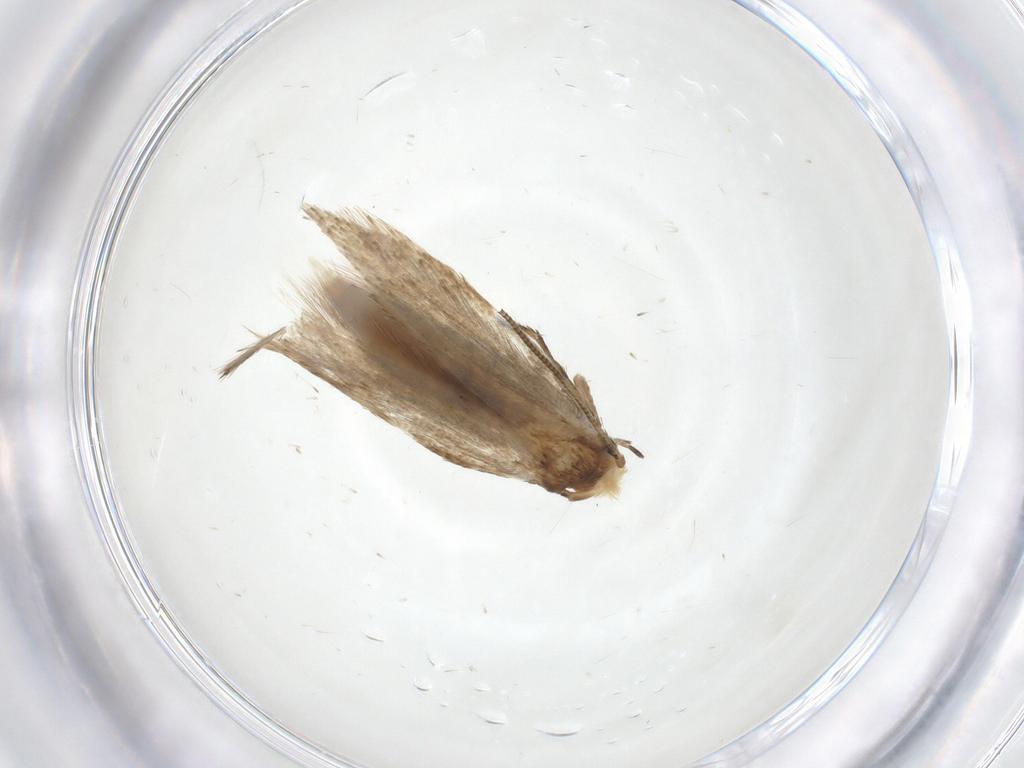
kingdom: Animalia
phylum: Arthropoda
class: Insecta
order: Lepidoptera
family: Tineidae
